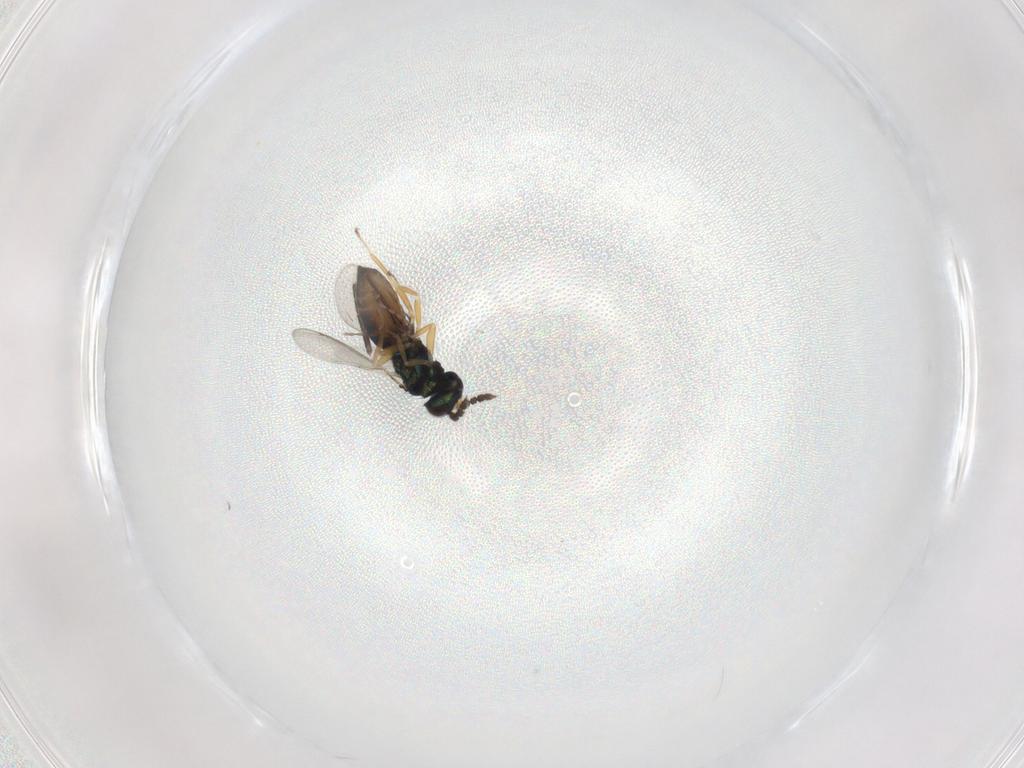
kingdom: Animalia
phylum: Arthropoda
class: Insecta
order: Hymenoptera
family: Eulophidae
